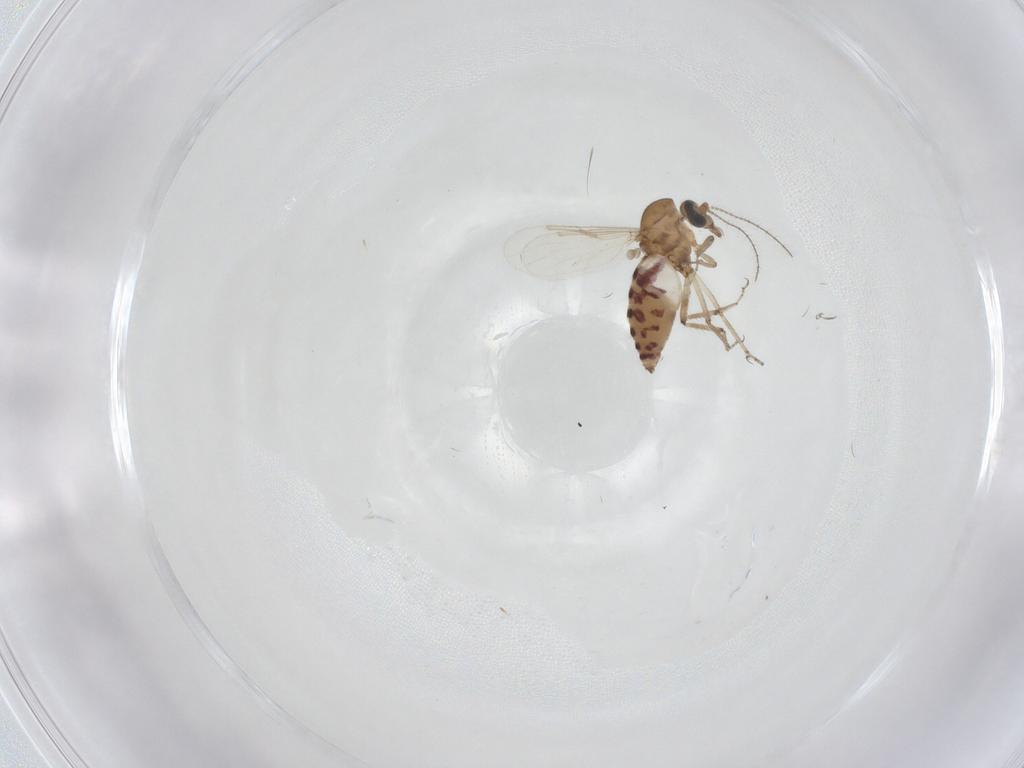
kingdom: Animalia
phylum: Arthropoda
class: Insecta
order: Diptera
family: Ceratopogonidae
